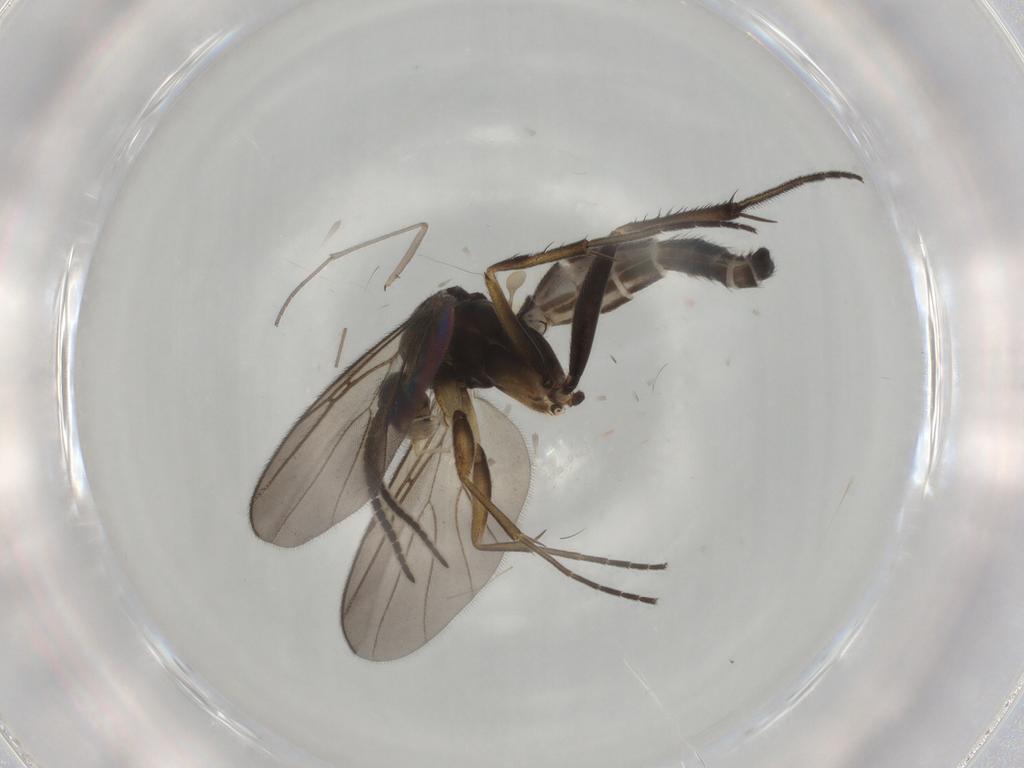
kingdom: Animalia
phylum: Arthropoda
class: Insecta
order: Diptera
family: Mycetophilidae
